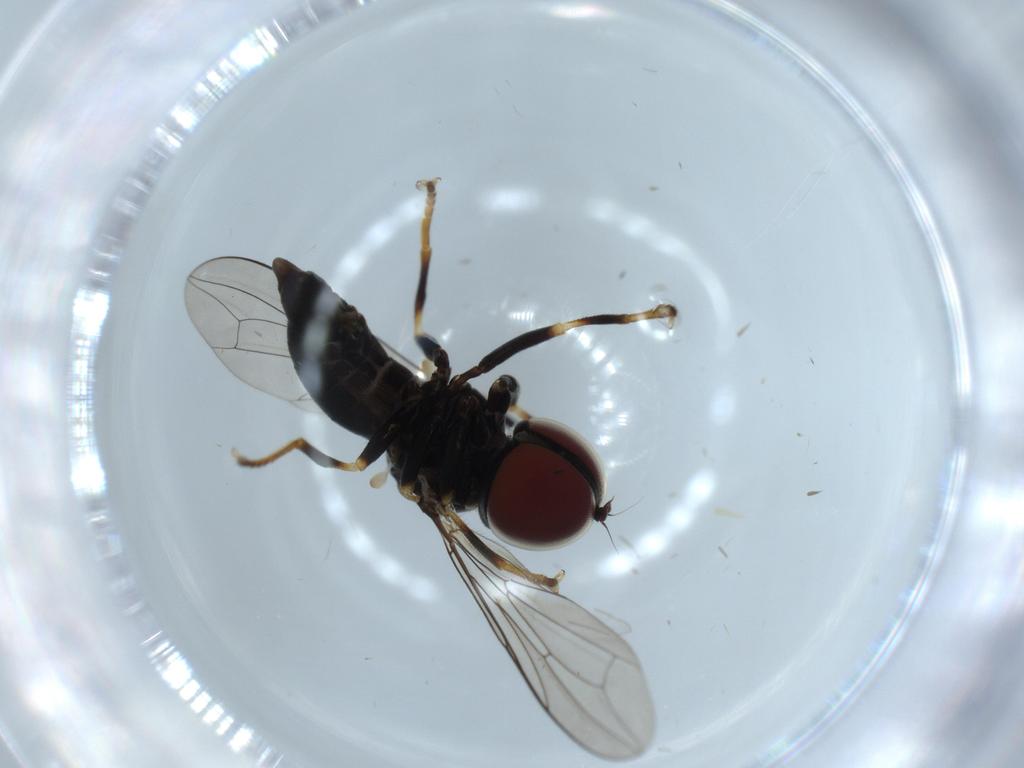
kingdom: Animalia
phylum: Arthropoda
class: Insecta
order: Diptera
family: Pipunculidae
